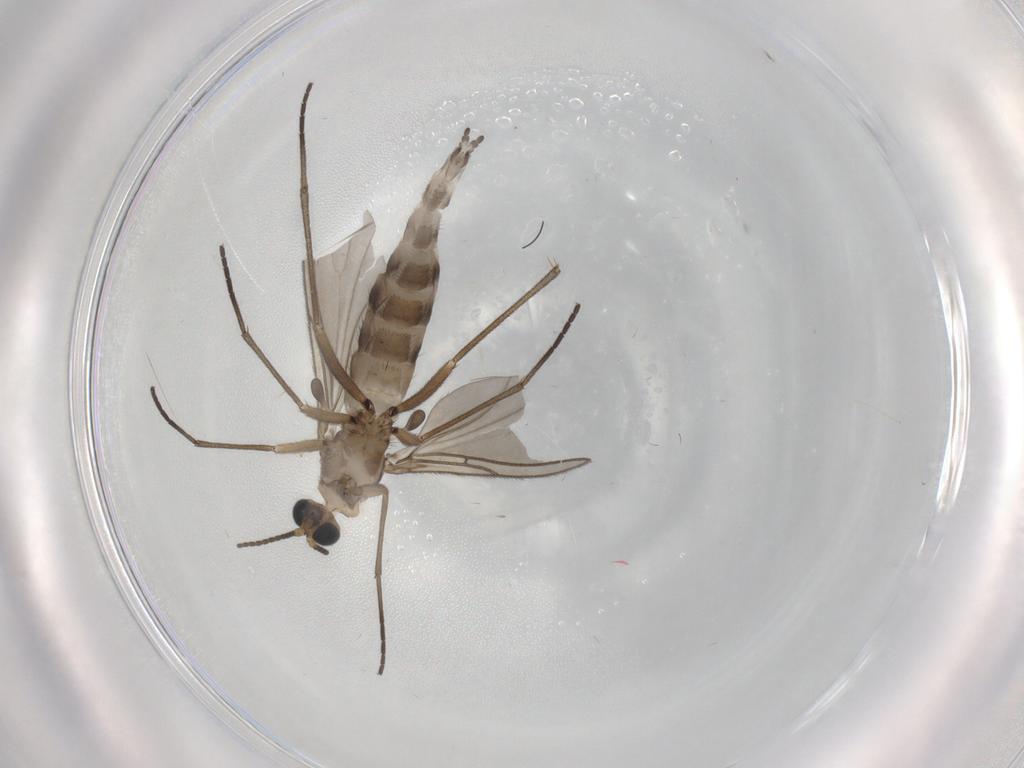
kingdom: Animalia
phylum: Arthropoda
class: Insecta
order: Diptera
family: Sciaridae
